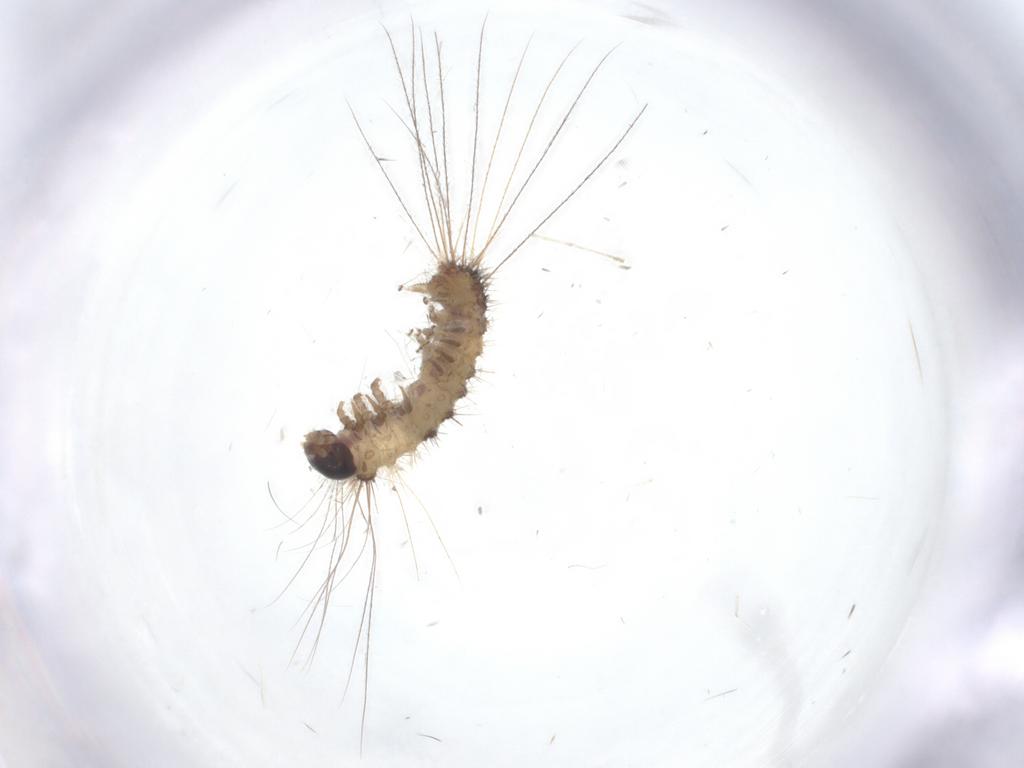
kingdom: Animalia
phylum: Arthropoda
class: Insecta
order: Lepidoptera
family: Erebidae
